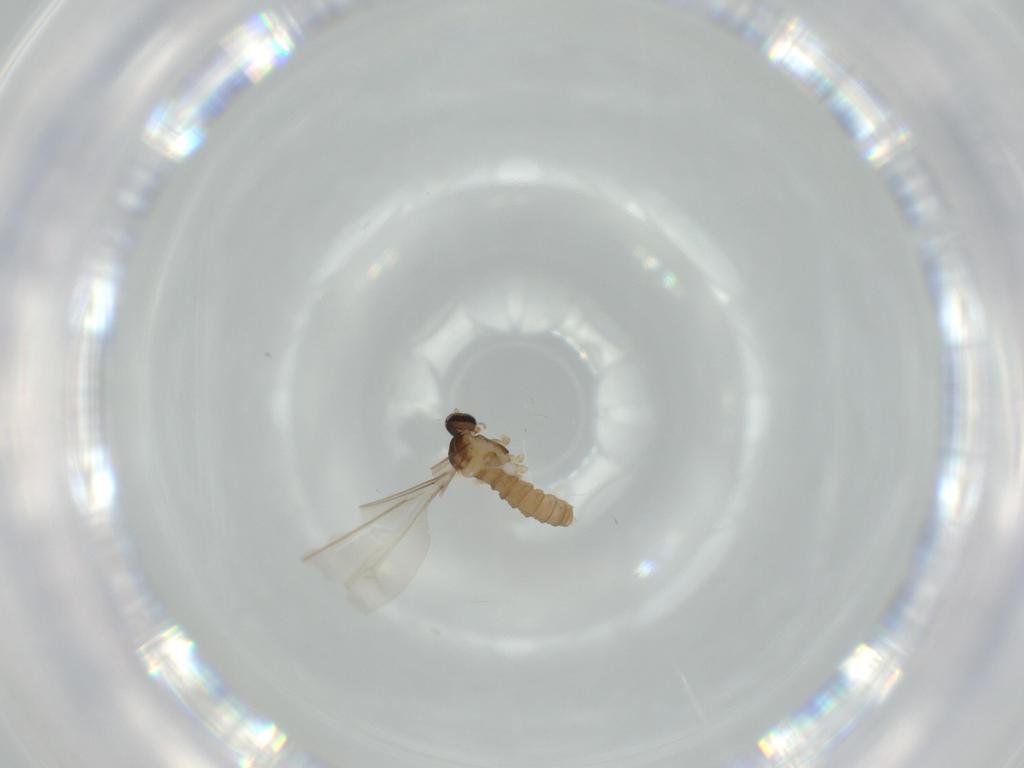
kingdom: Animalia
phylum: Arthropoda
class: Insecta
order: Diptera
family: Cecidomyiidae
